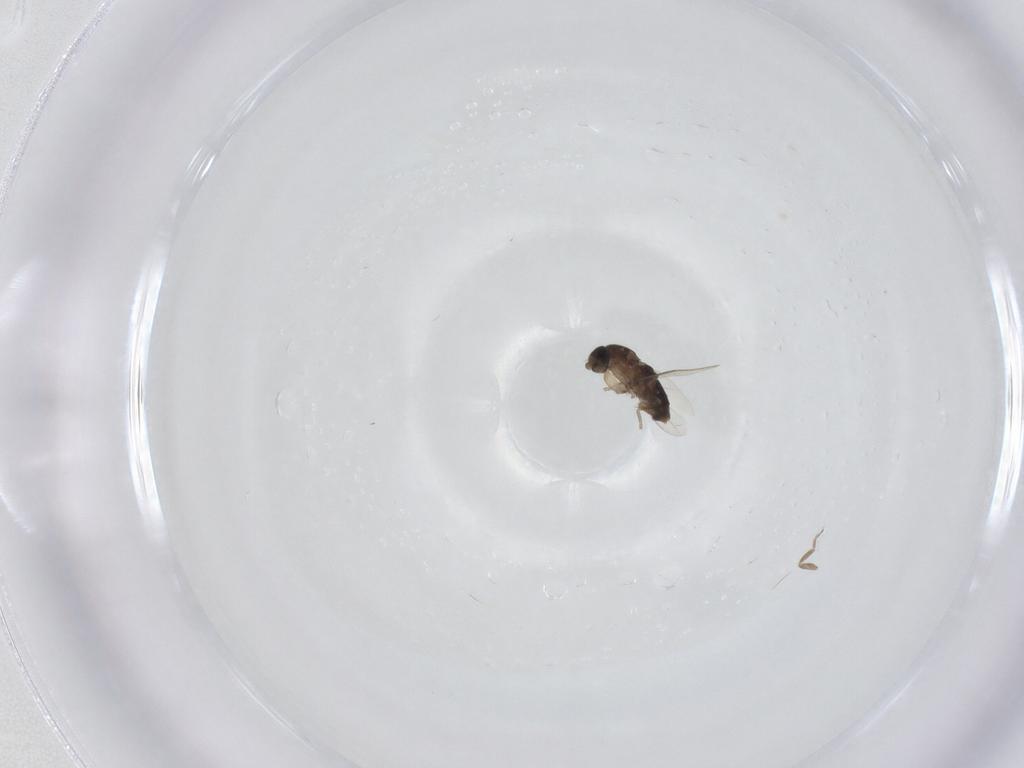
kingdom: Animalia
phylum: Arthropoda
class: Insecta
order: Diptera
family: Phoridae
